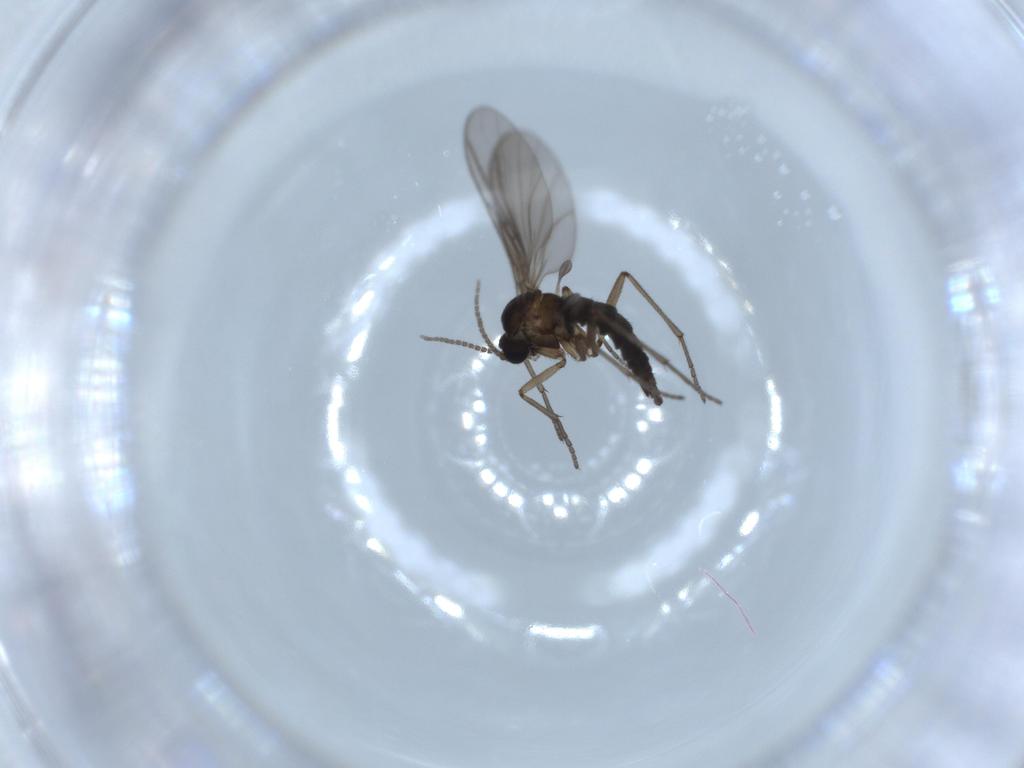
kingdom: Animalia
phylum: Arthropoda
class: Insecta
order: Diptera
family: Sciaridae
